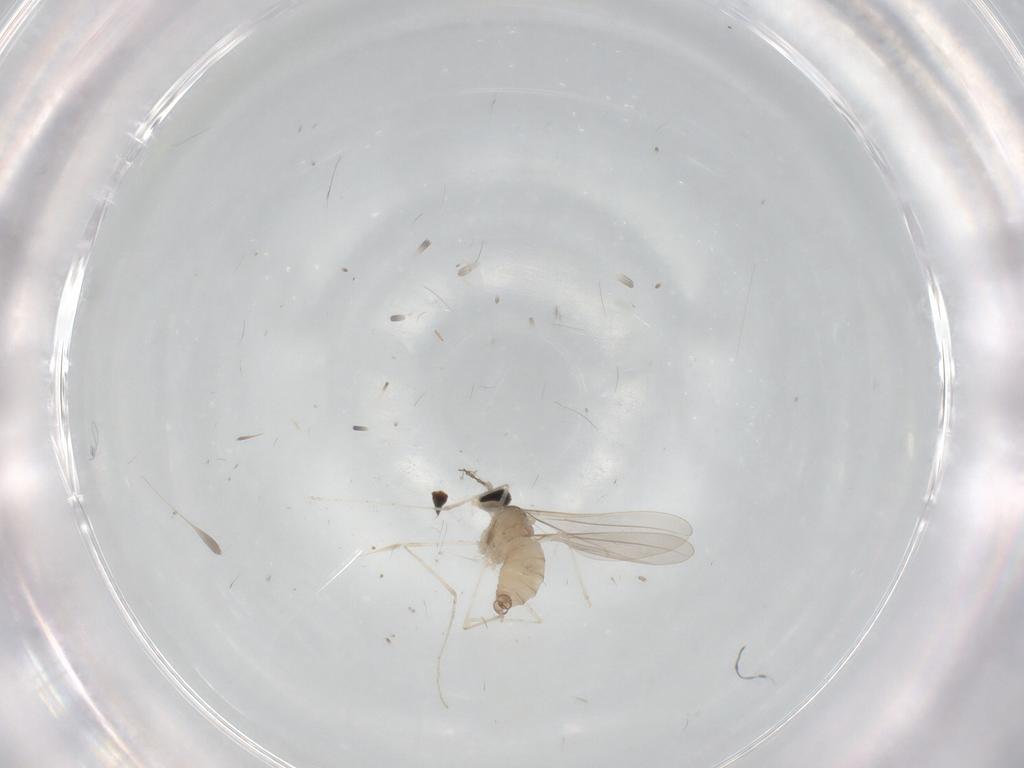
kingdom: Animalia
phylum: Arthropoda
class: Insecta
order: Diptera
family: Cecidomyiidae
